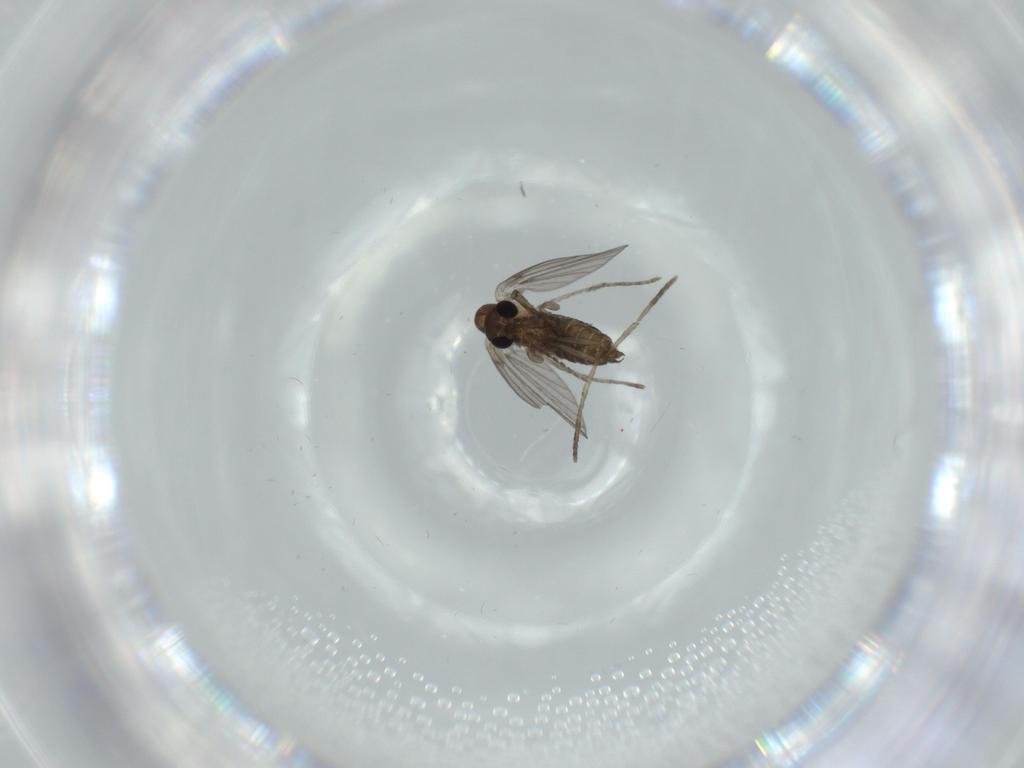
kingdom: Animalia
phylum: Arthropoda
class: Insecta
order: Diptera
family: Psychodidae
